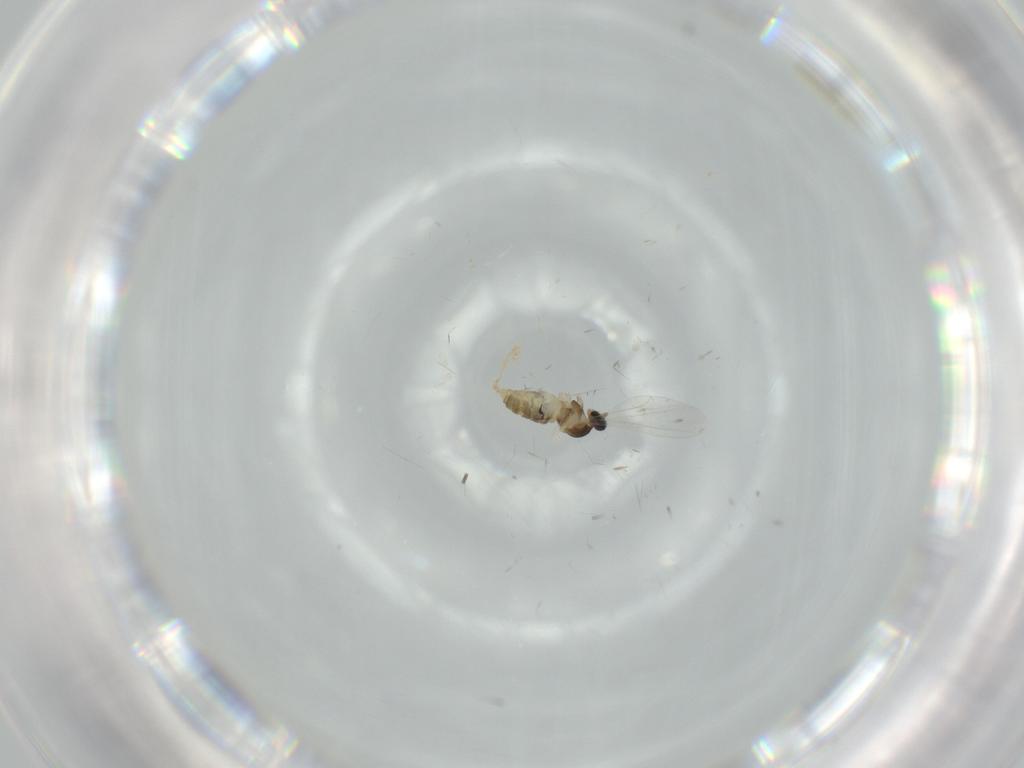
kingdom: Animalia
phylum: Arthropoda
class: Insecta
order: Diptera
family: Cecidomyiidae
